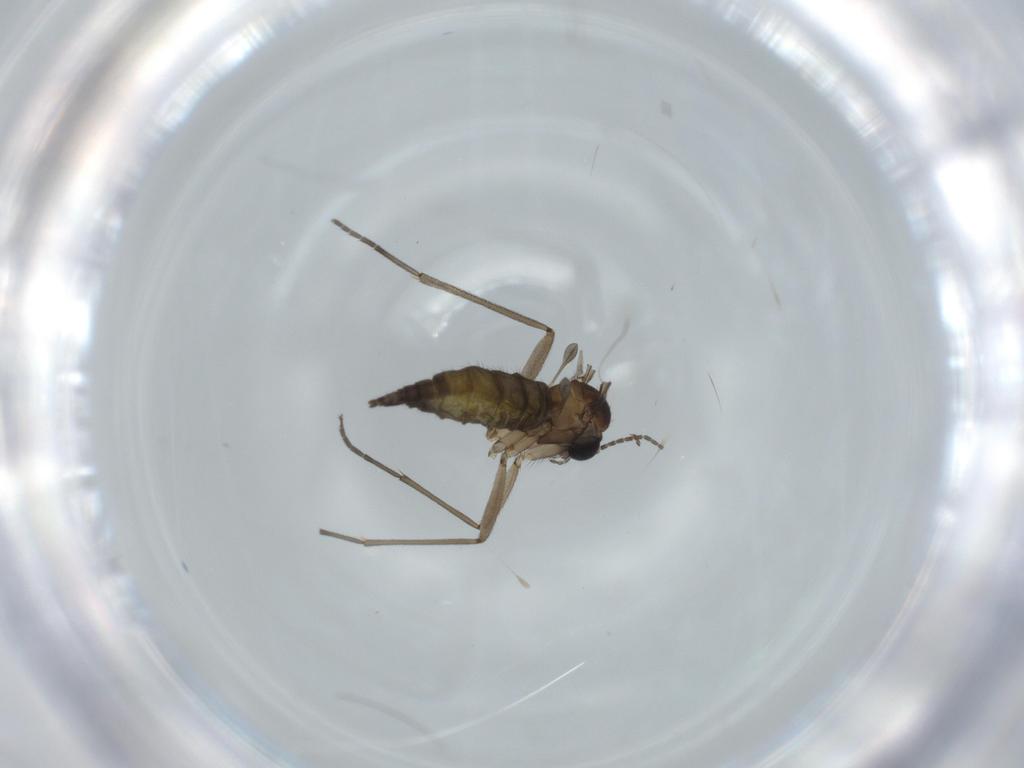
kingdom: Animalia
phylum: Arthropoda
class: Insecta
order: Diptera
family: Sciaridae
